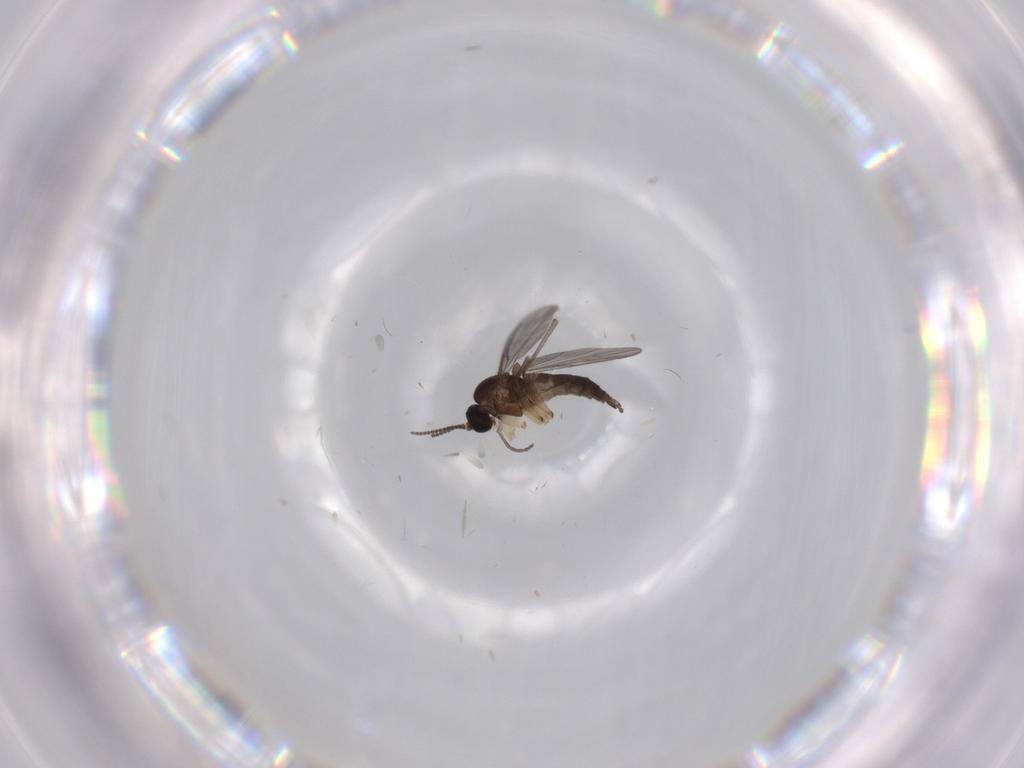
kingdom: Animalia
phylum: Arthropoda
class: Insecta
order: Diptera
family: Sciaridae
